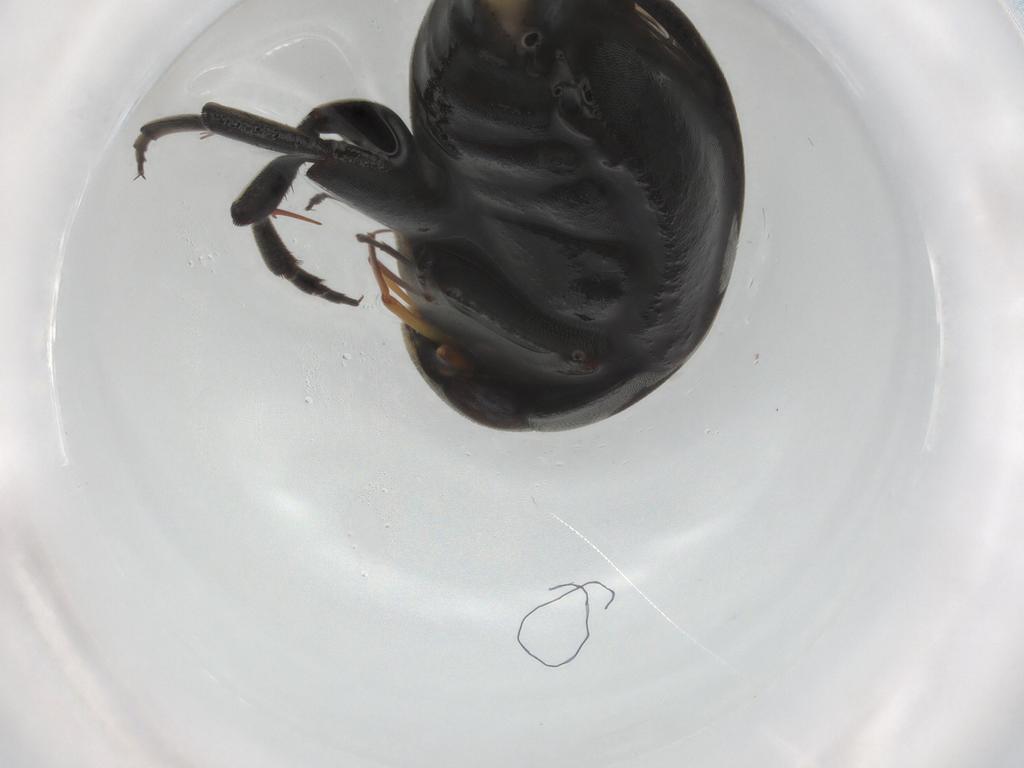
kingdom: Animalia
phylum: Arthropoda
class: Insecta
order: Coleoptera
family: Mordellidae
